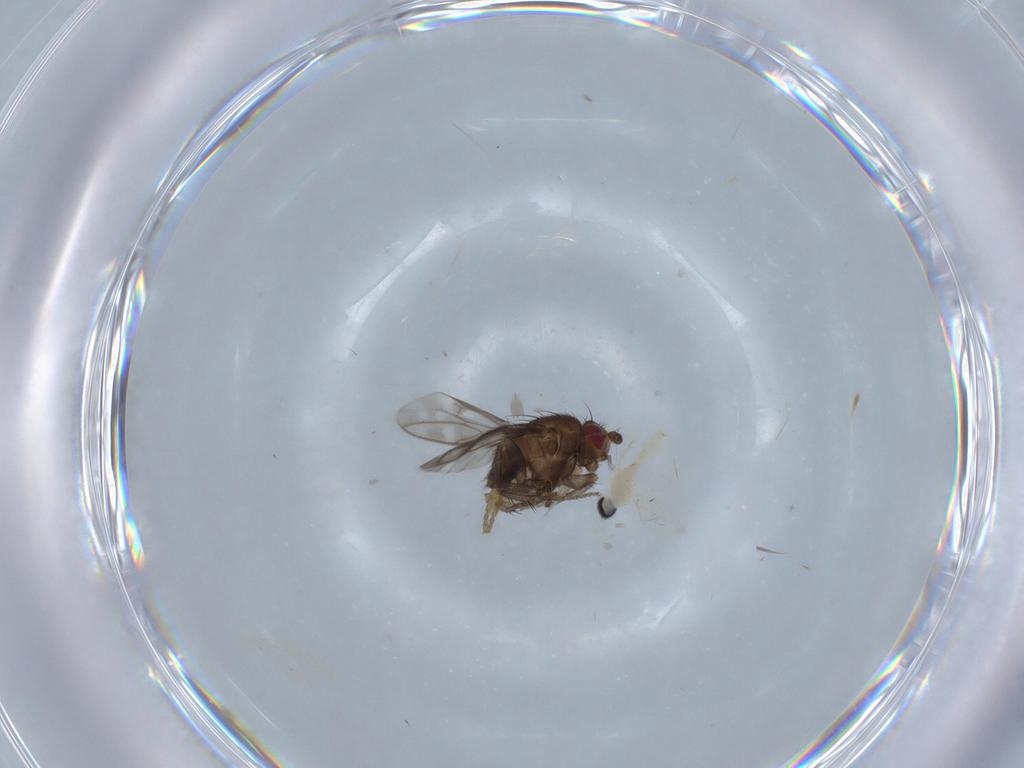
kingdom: Animalia
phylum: Arthropoda
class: Insecta
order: Diptera
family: Cecidomyiidae
